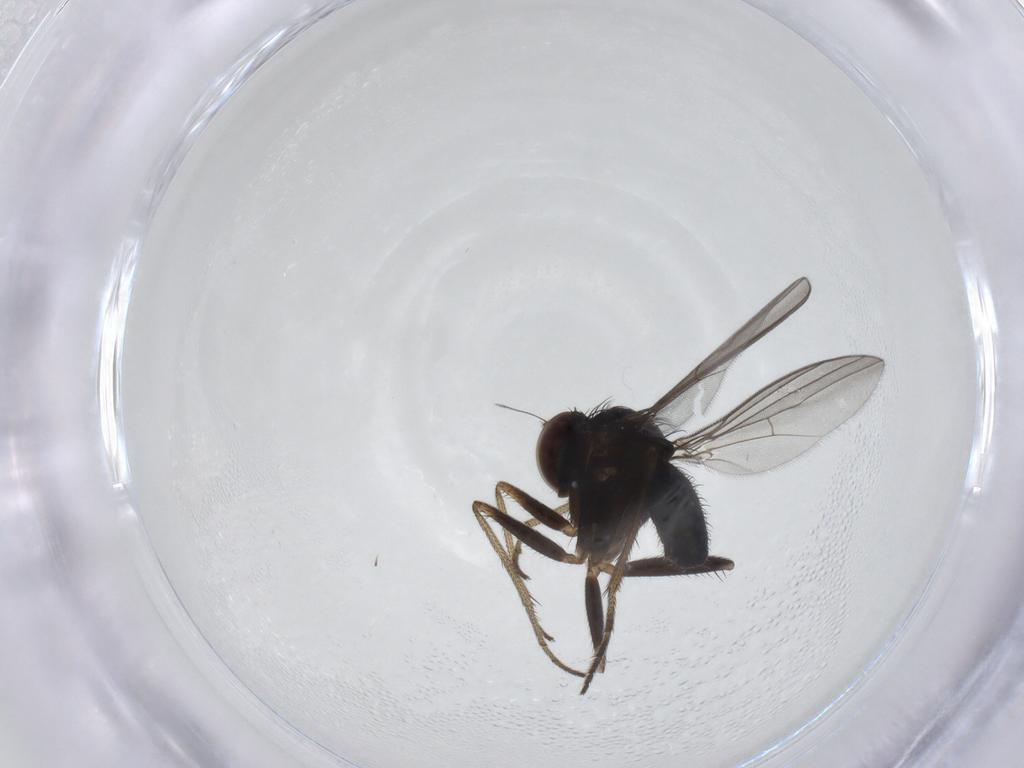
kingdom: Animalia
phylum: Arthropoda
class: Insecta
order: Diptera
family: Dolichopodidae
